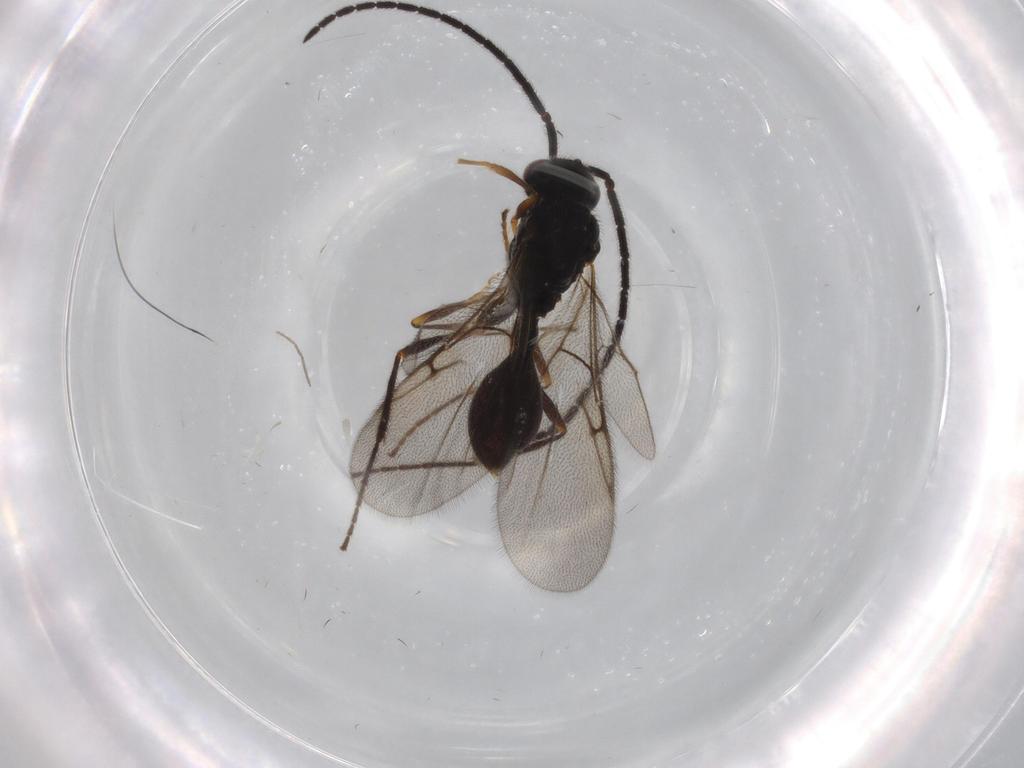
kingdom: Animalia
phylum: Arthropoda
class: Insecta
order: Hymenoptera
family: Diapriidae
